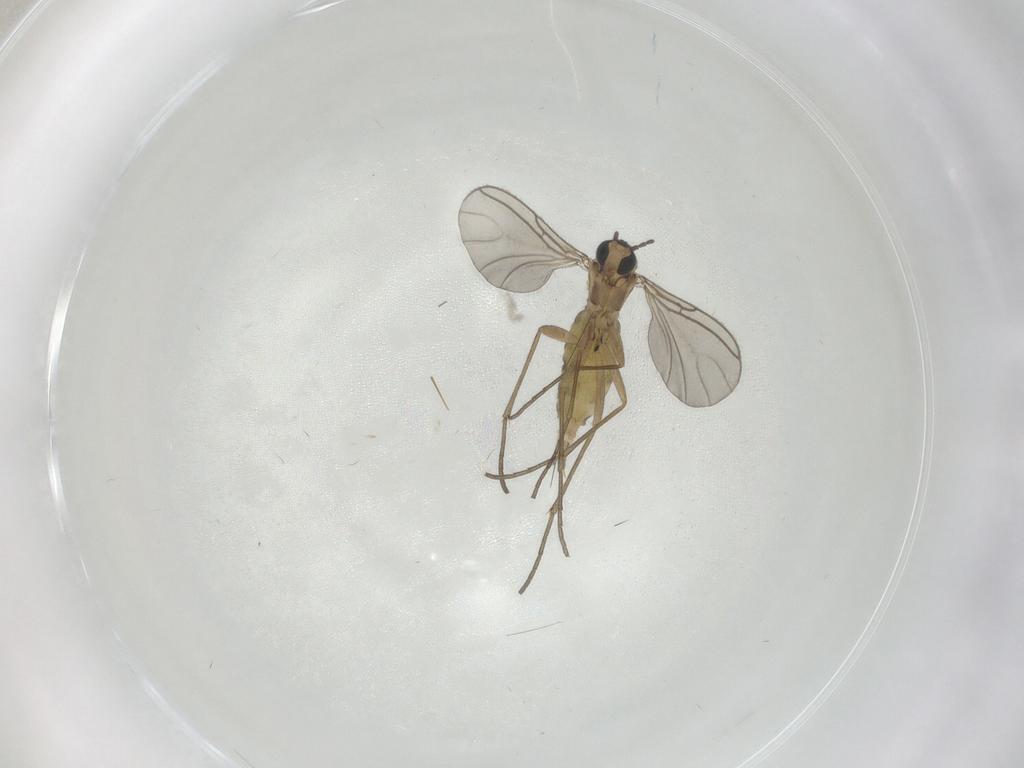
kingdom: Animalia
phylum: Arthropoda
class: Insecta
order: Diptera
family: Sciaridae
